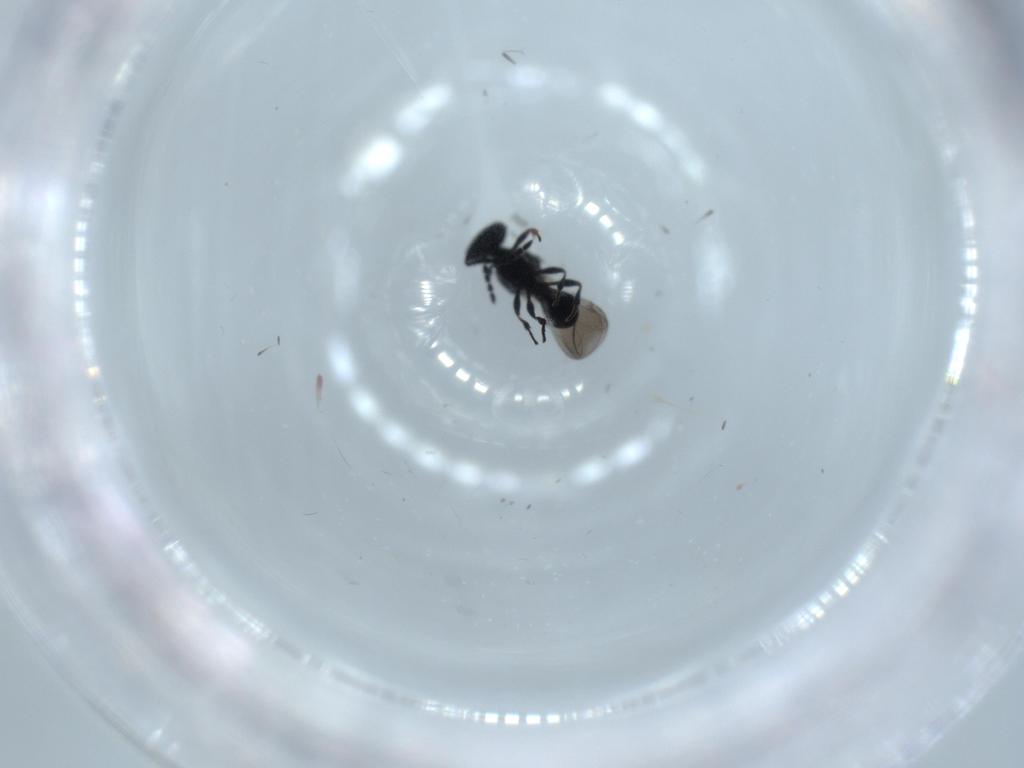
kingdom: Animalia
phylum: Arthropoda
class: Insecta
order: Hymenoptera
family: Platygastridae
